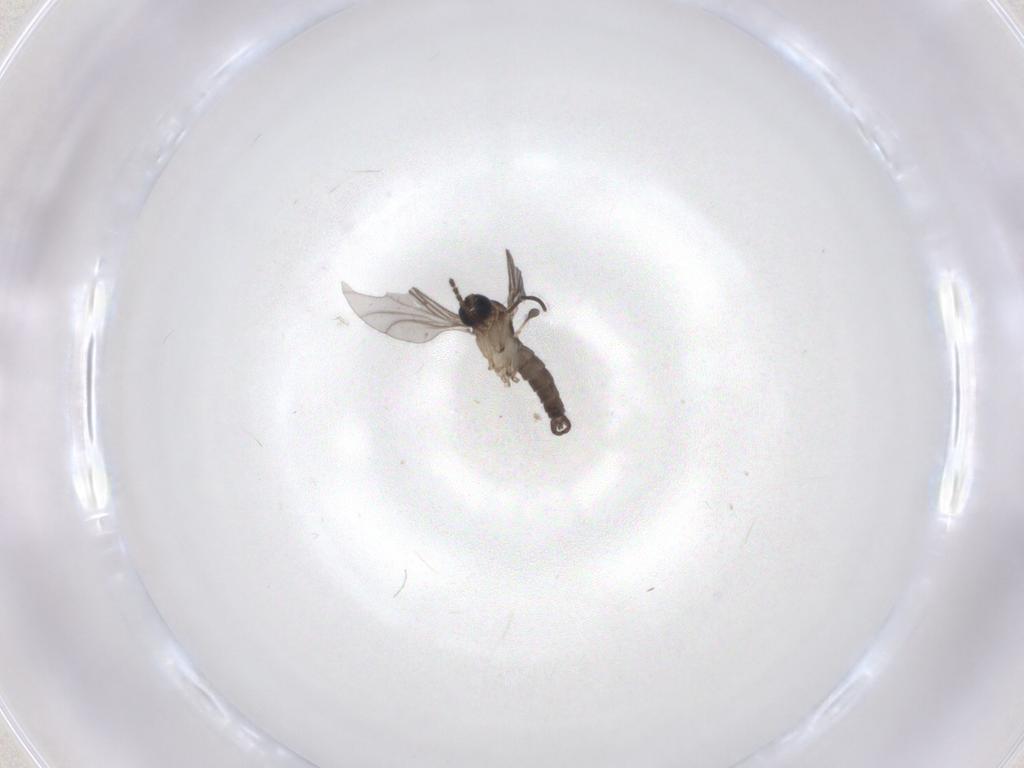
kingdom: Animalia
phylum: Arthropoda
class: Insecta
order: Diptera
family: Sciaridae
